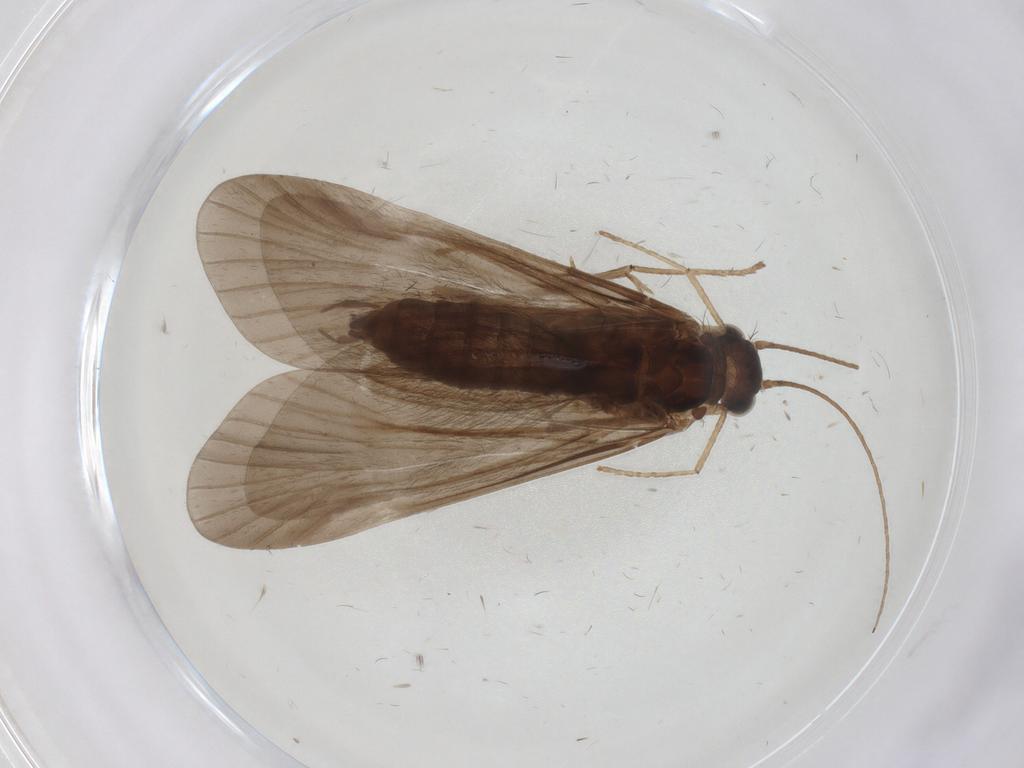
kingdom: Animalia
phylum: Arthropoda
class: Insecta
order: Trichoptera
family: Hydropsychidae
